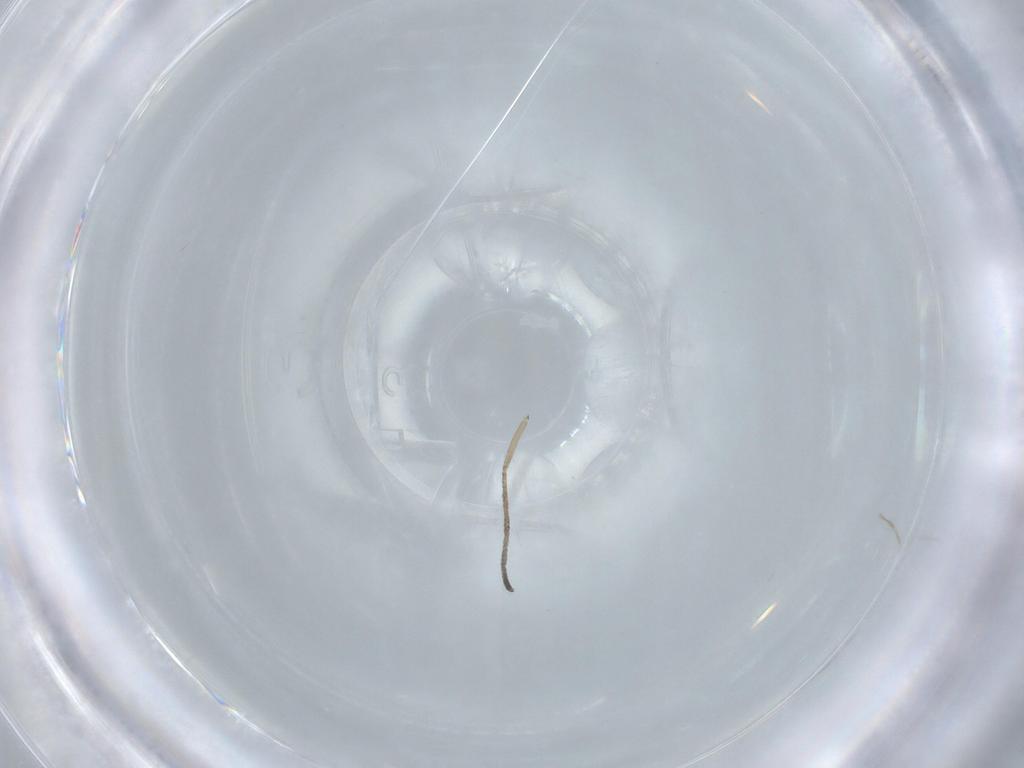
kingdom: Animalia
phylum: Arthropoda
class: Insecta
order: Diptera
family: Psychodidae
